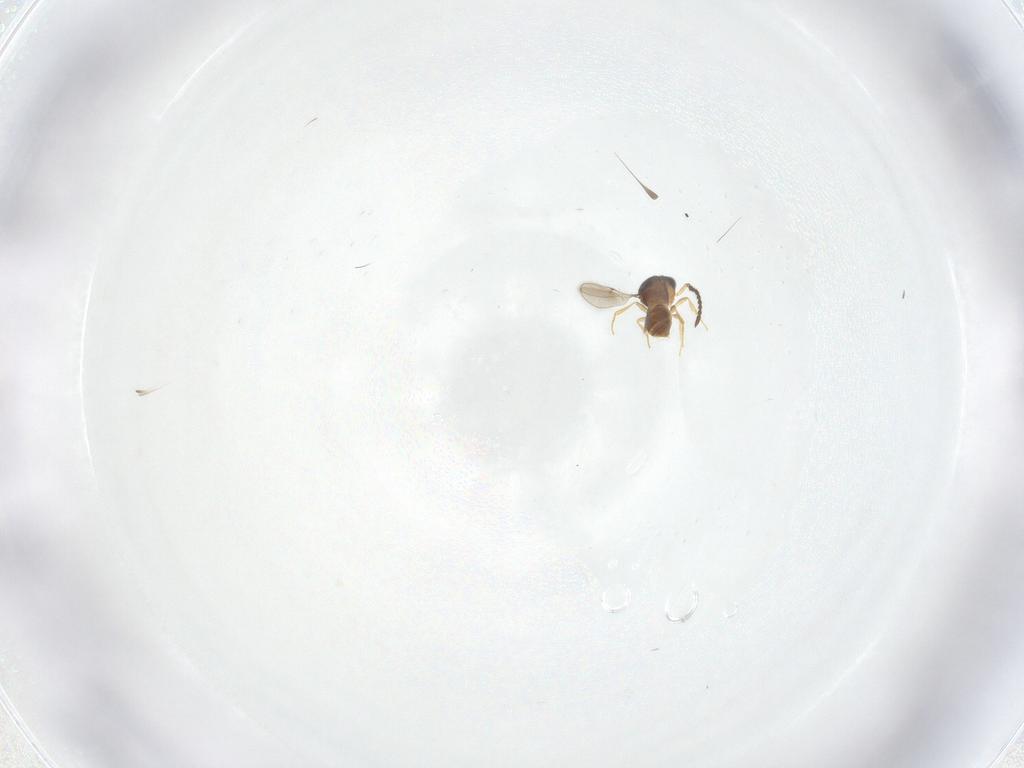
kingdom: Animalia
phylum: Arthropoda
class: Insecta
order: Hymenoptera
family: Scelionidae
